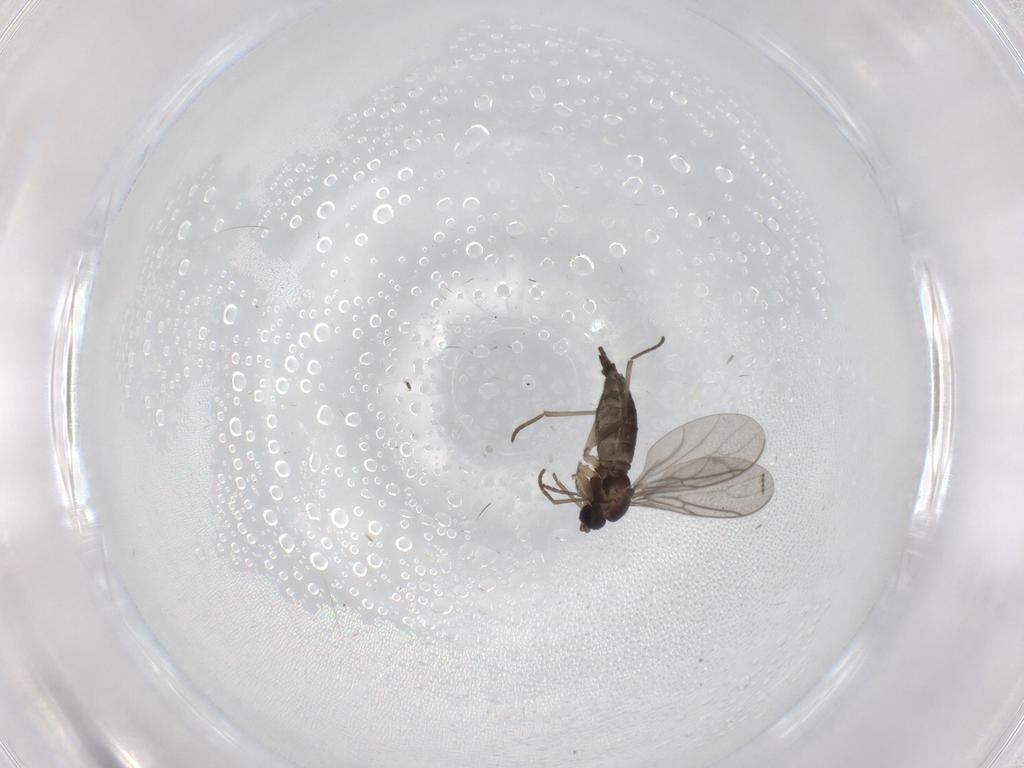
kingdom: Animalia
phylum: Arthropoda
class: Insecta
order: Diptera
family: Sciaridae
